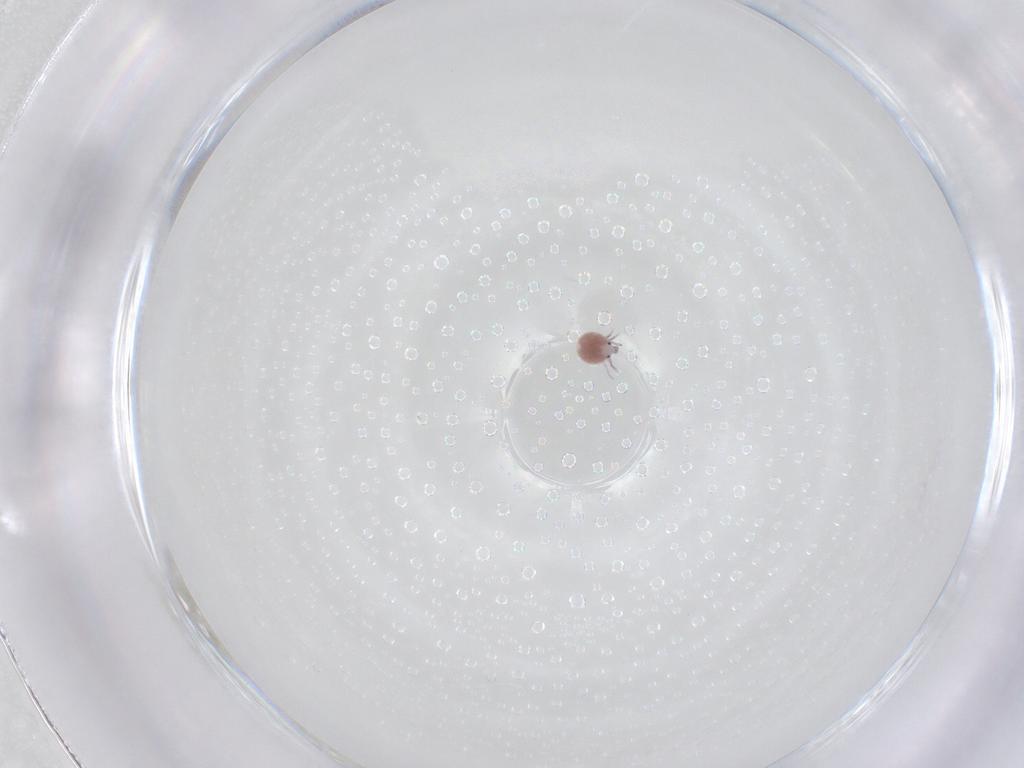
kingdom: Animalia
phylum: Arthropoda
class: Arachnida
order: Trombidiformes
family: Pionidae
